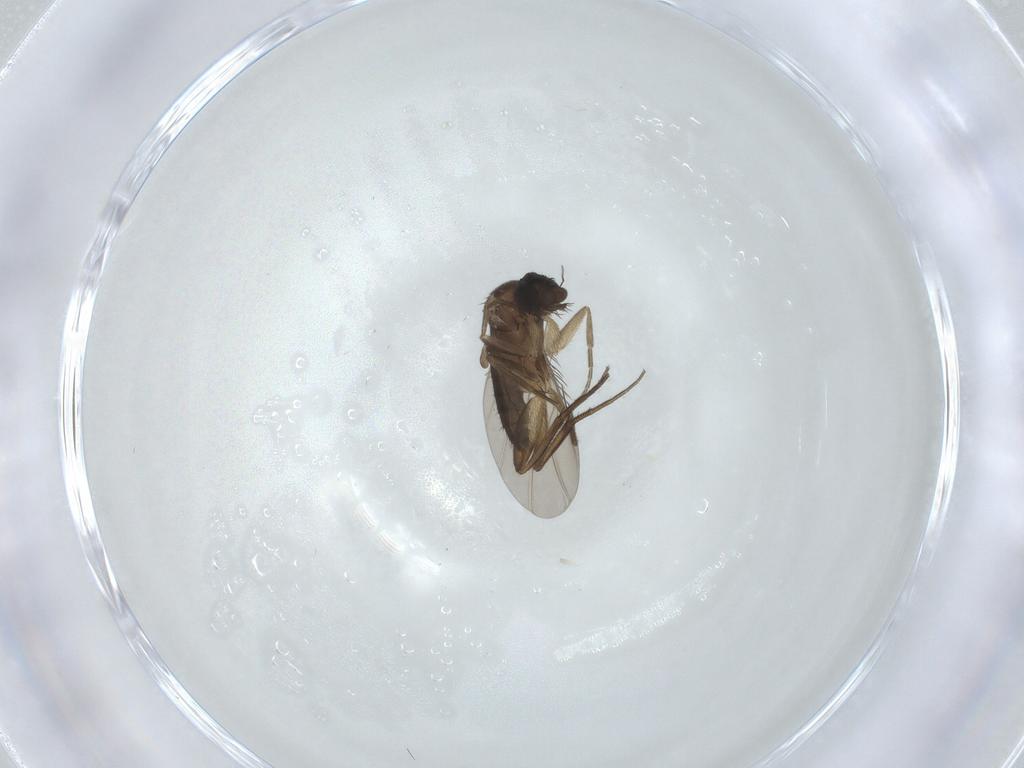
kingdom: Animalia
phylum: Arthropoda
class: Insecta
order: Diptera
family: Phoridae
